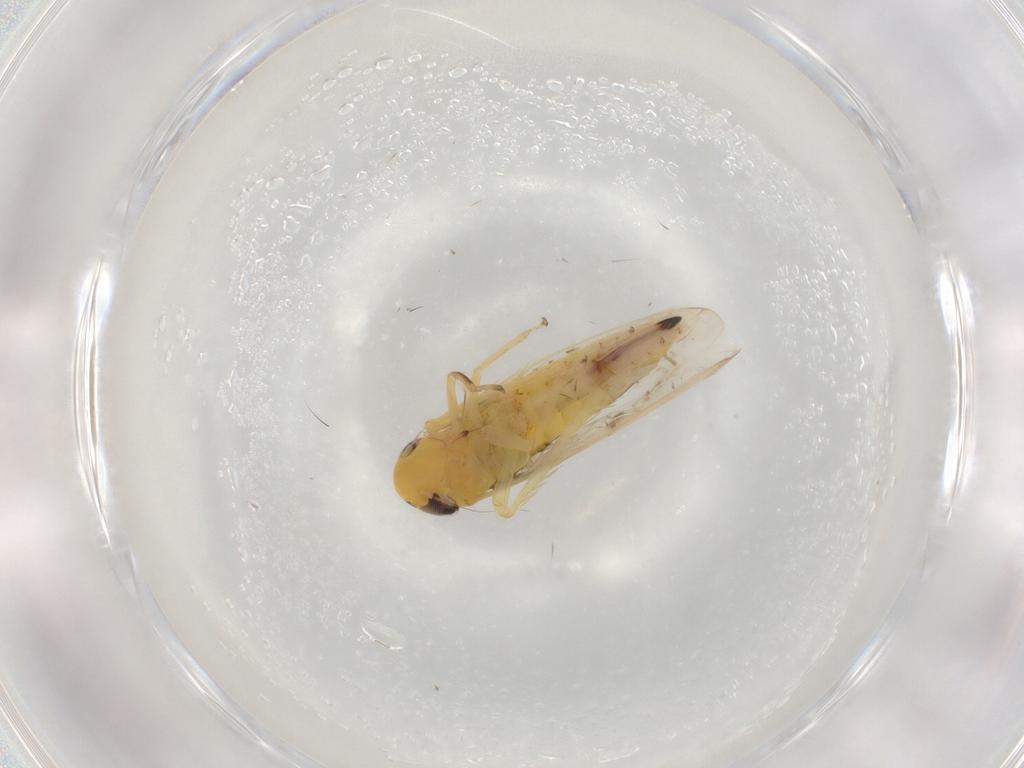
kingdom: Animalia
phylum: Arthropoda
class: Insecta
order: Hemiptera
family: Cicadellidae
